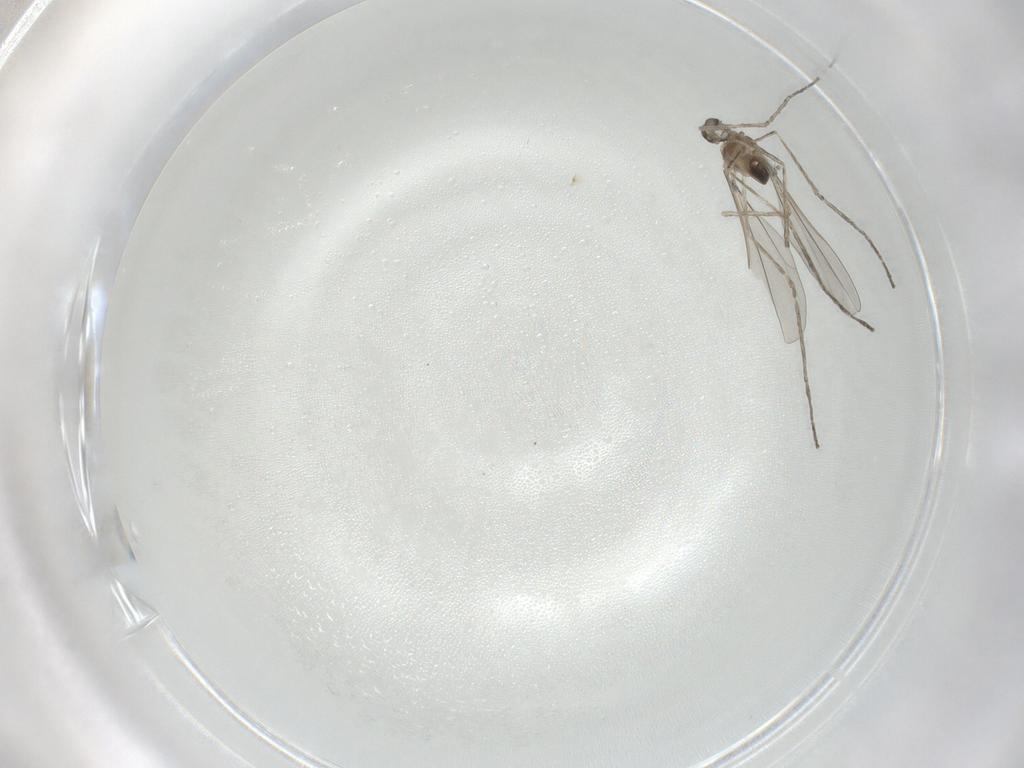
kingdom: Animalia
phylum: Arthropoda
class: Insecta
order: Diptera
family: Cecidomyiidae
